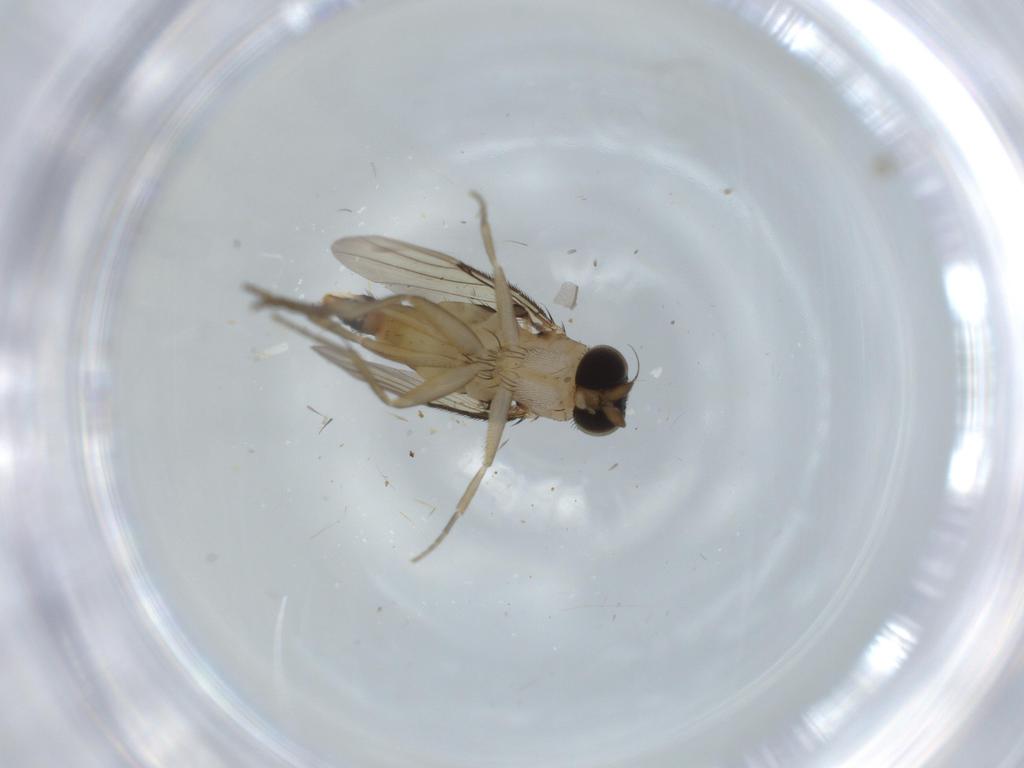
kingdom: Animalia
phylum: Arthropoda
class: Insecta
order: Diptera
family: Phoridae
